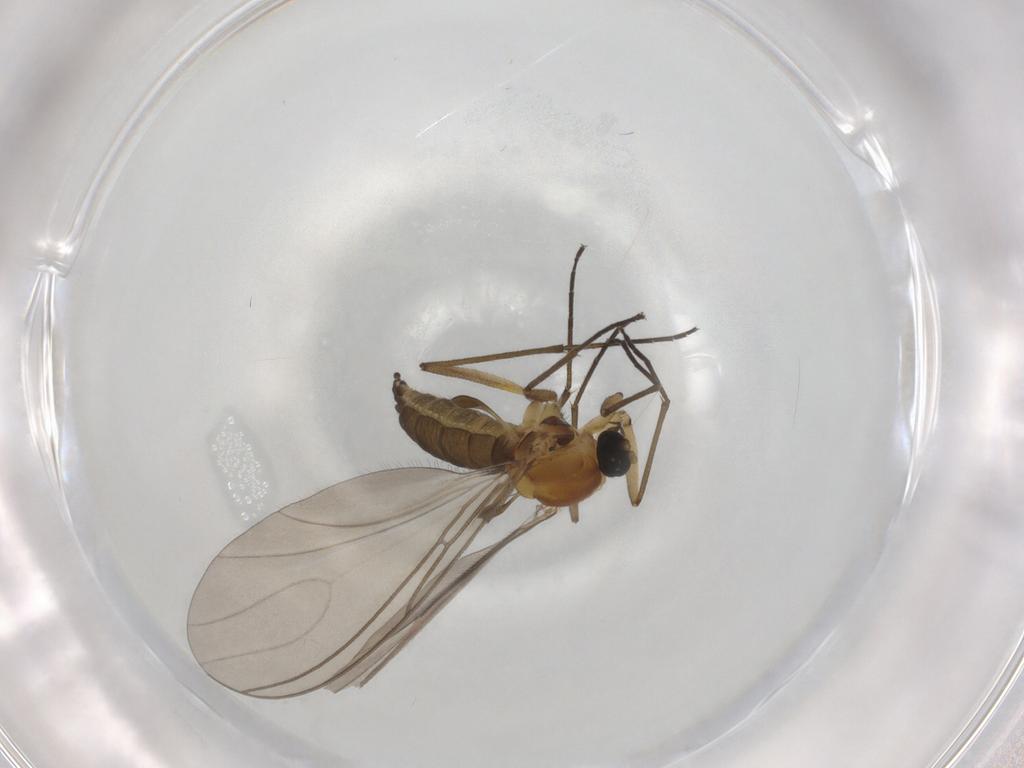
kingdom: Animalia
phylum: Arthropoda
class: Insecta
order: Diptera
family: Sciaridae
